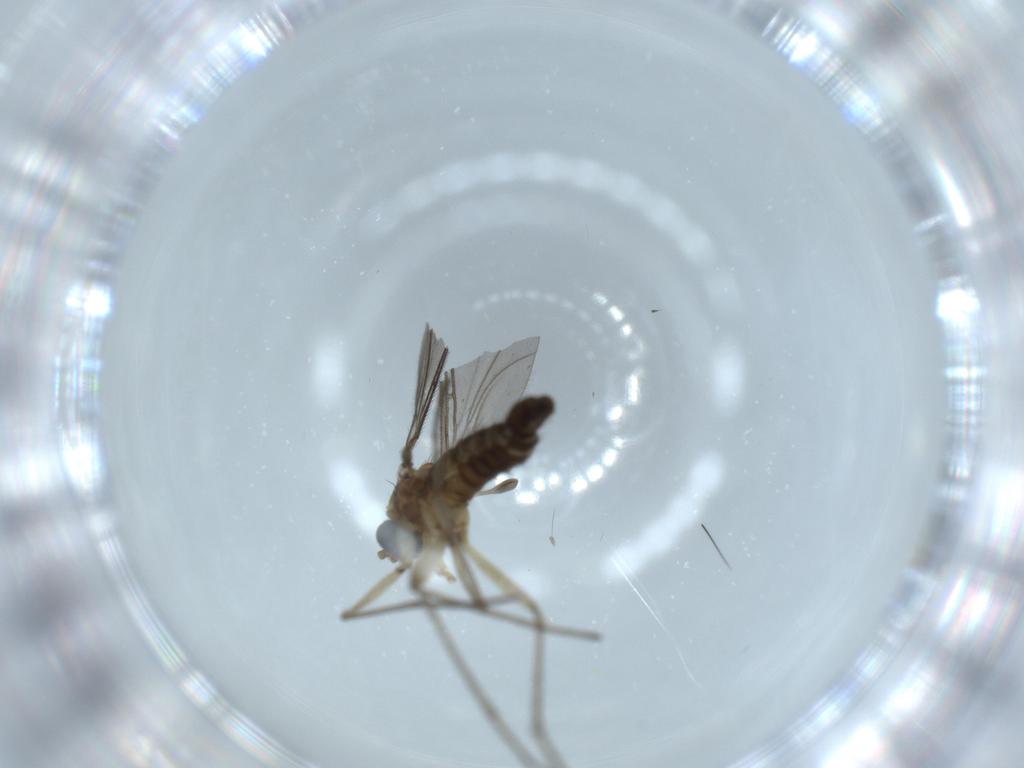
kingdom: Animalia
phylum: Arthropoda
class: Insecta
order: Diptera
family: Sciaridae
